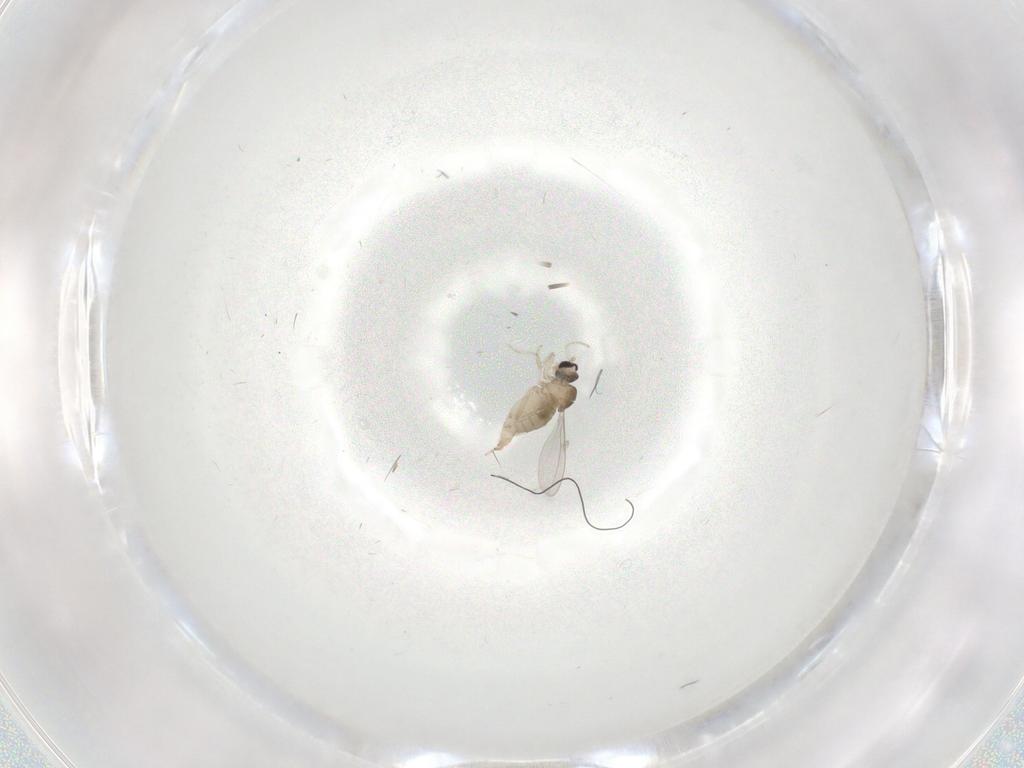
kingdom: Animalia
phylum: Arthropoda
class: Insecta
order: Diptera
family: Cecidomyiidae
